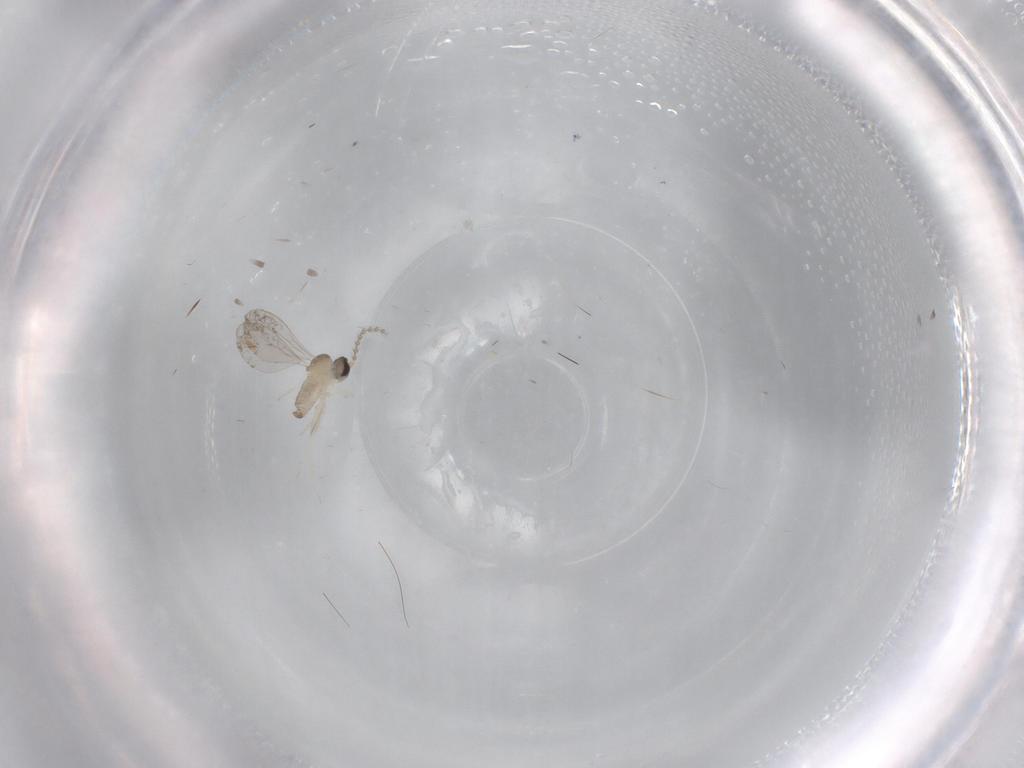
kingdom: Animalia
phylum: Arthropoda
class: Insecta
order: Diptera
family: Cecidomyiidae
